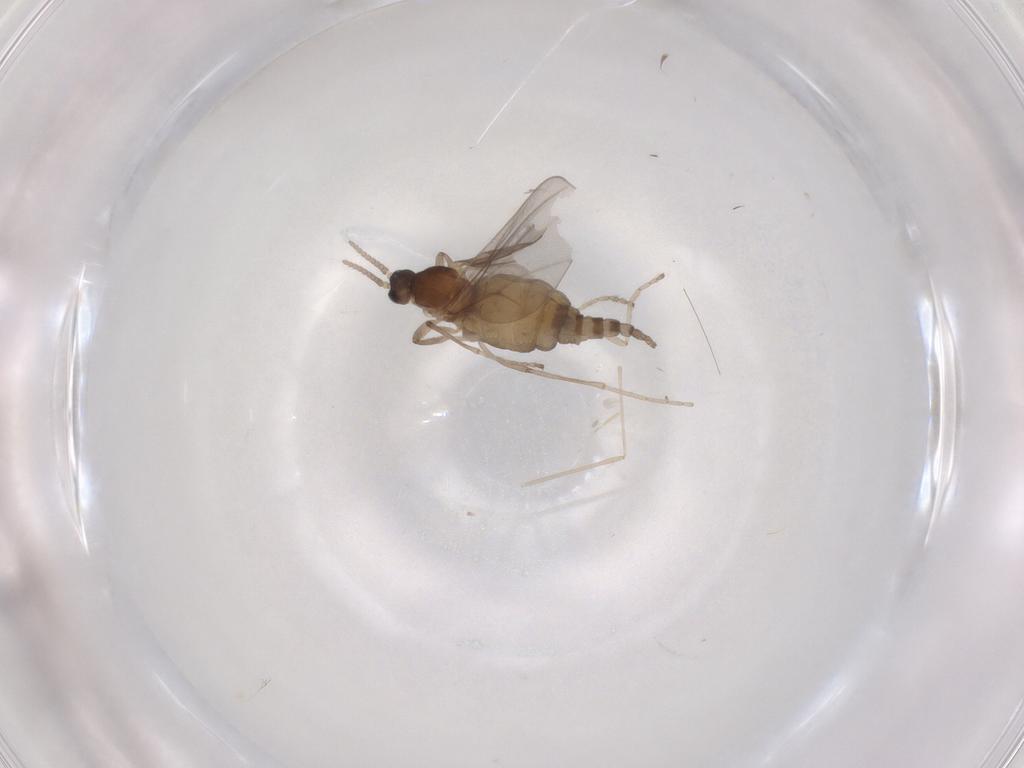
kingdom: Animalia
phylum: Arthropoda
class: Insecta
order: Diptera
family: Cecidomyiidae
